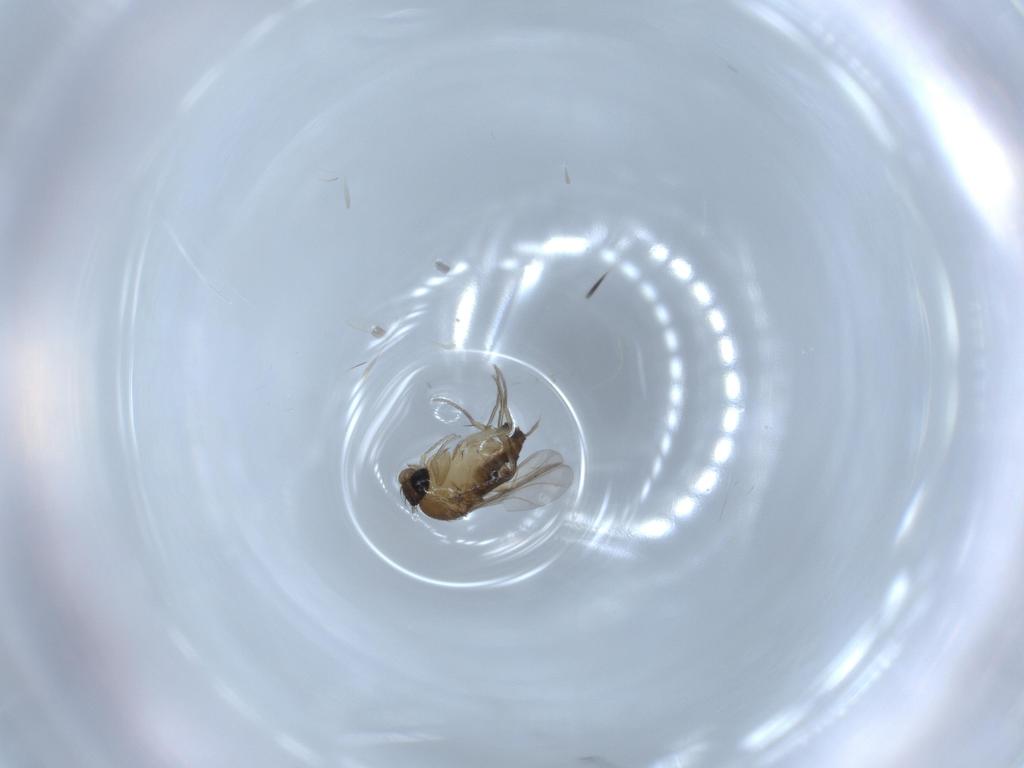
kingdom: Animalia
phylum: Arthropoda
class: Insecta
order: Diptera
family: Phoridae
